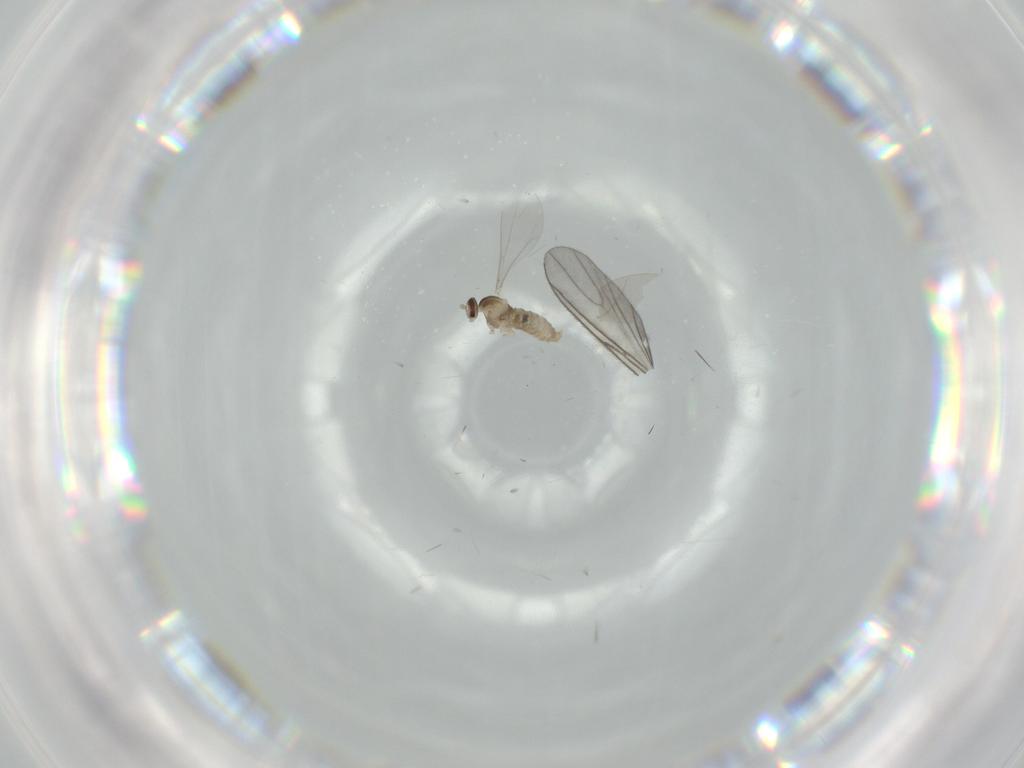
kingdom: Animalia
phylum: Arthropoda
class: Insecta
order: Diptera
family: Cecidomyiidae
